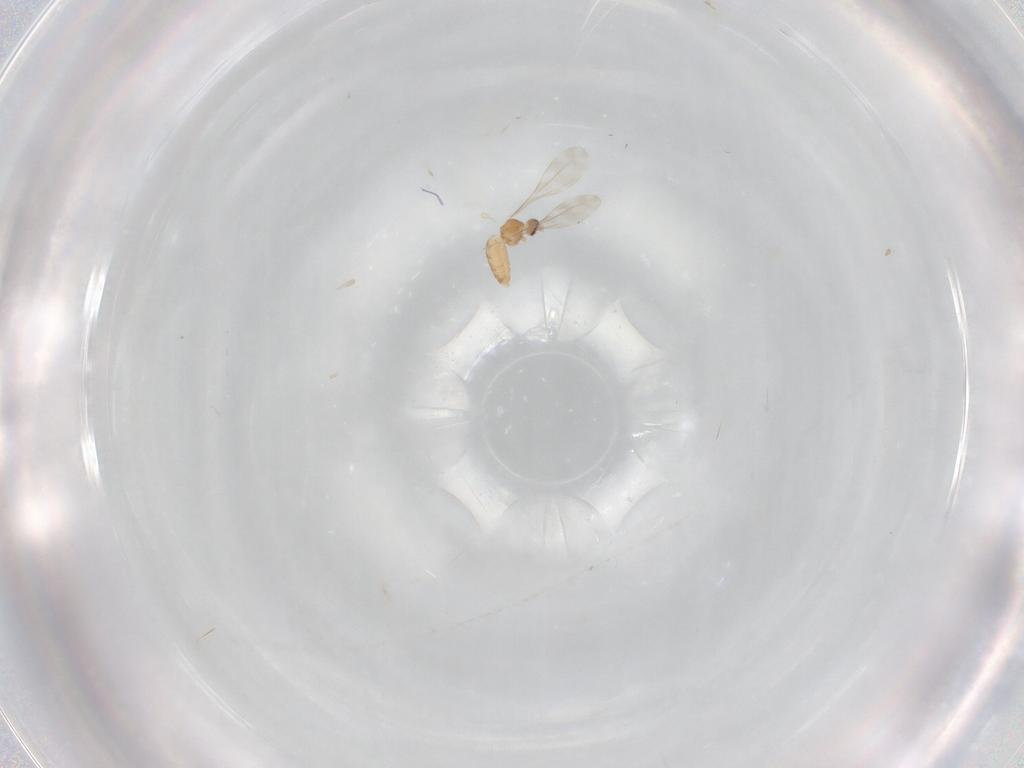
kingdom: Animalia
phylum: Arthropoda
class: Insecta
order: Diptera
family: Cecidomyiidae
